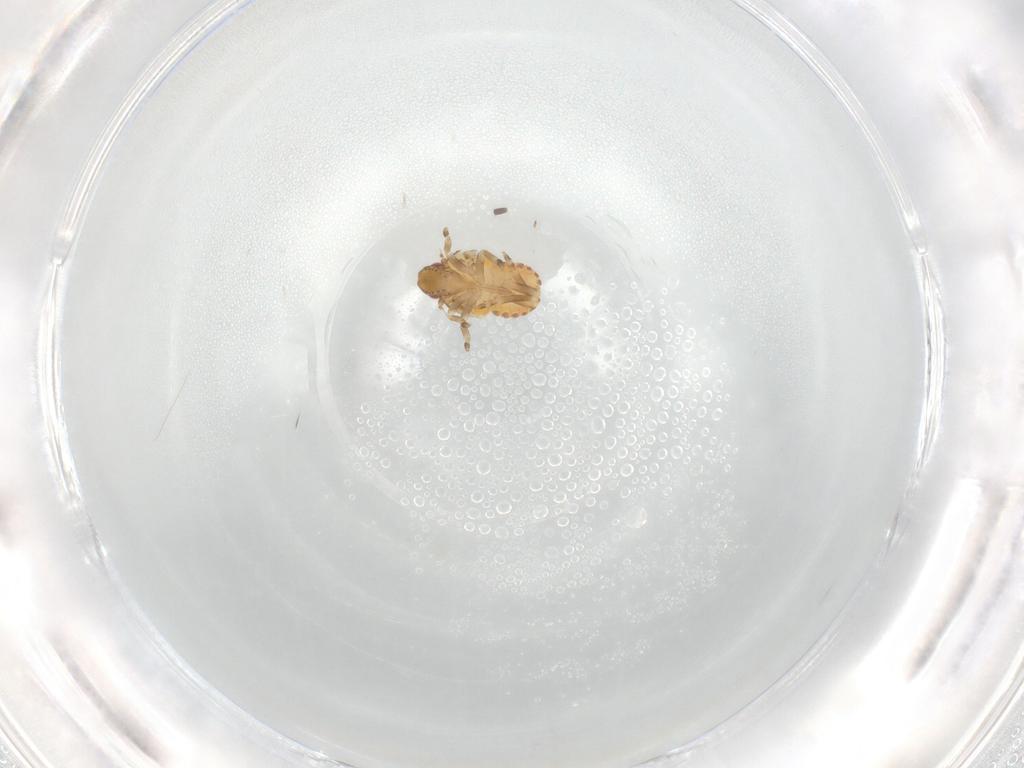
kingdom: Animalia
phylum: Arthropoda
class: Insecta
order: Hemiptera
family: Flatidae
